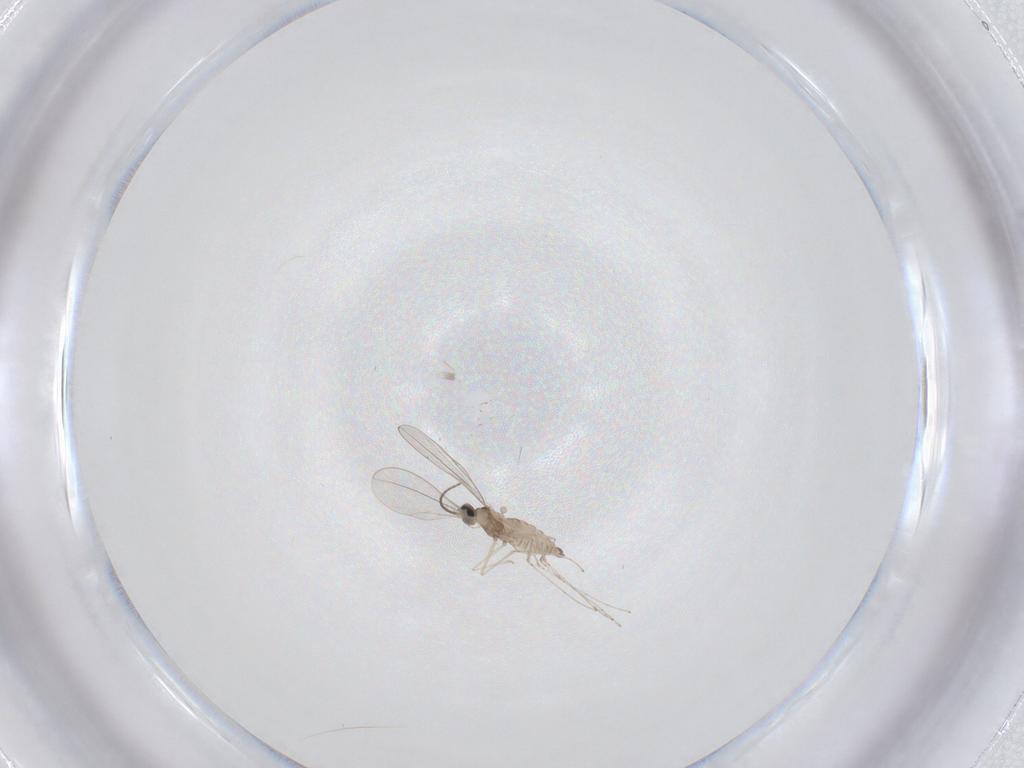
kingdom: Animalia
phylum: Arthropoda
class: Insecta
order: Diptera
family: Cecidomyiidae
